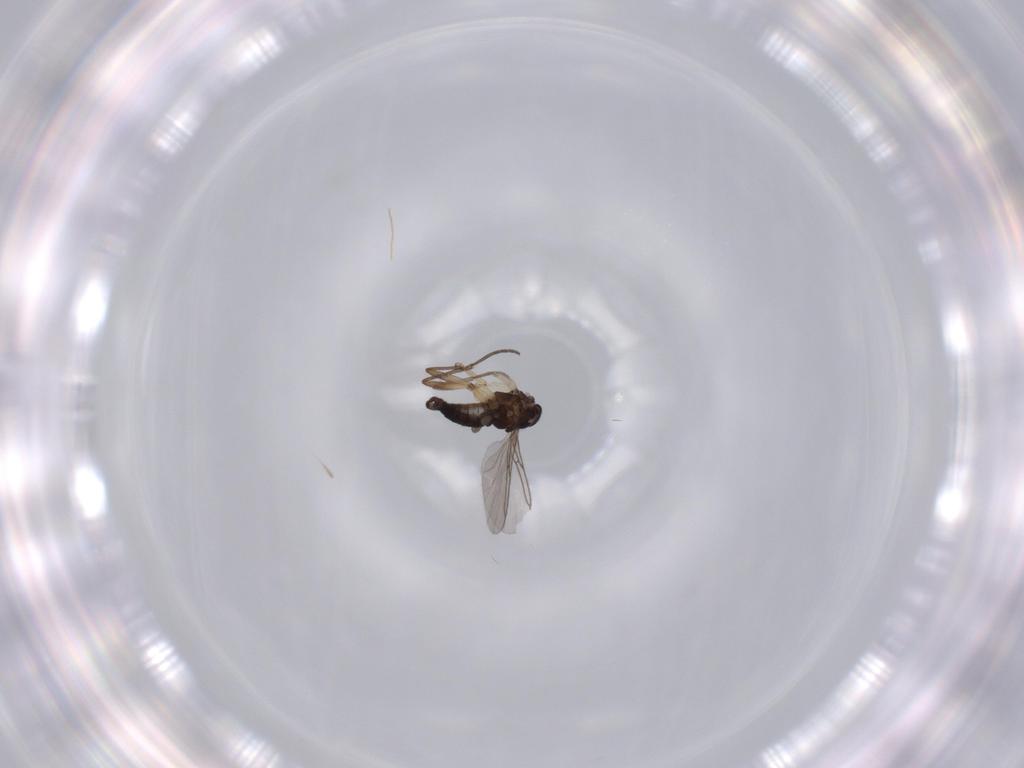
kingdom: Animalia
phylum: Arthropoda
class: Insecta
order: Diptera
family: Sciaridae
